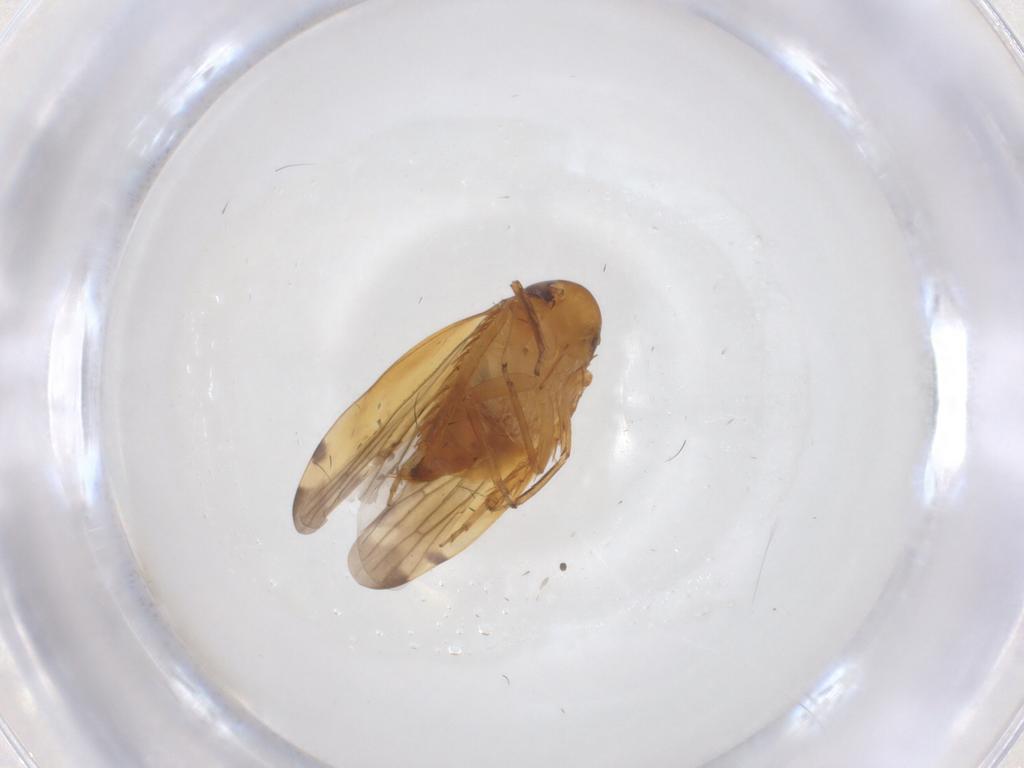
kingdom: Animalia
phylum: Arthropoda
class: Insecta
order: Hemiptera
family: Cicadellidae
